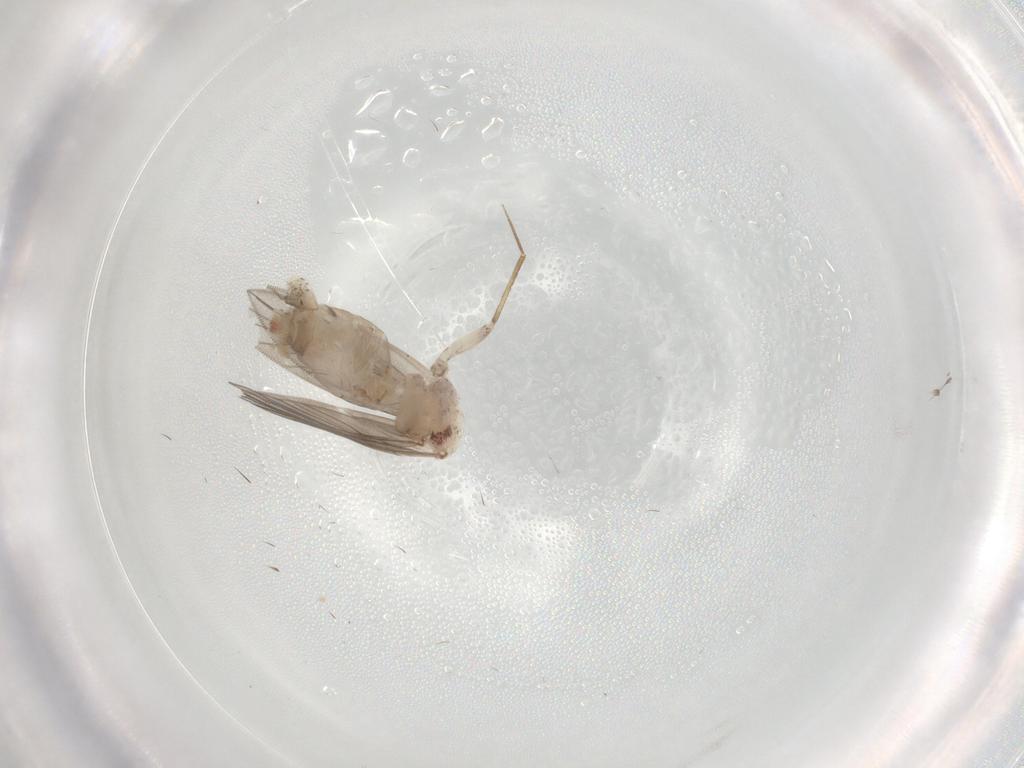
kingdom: Animalia
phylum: Arthropoda
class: Insecta
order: Psocodea
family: Lepidopsocidae
